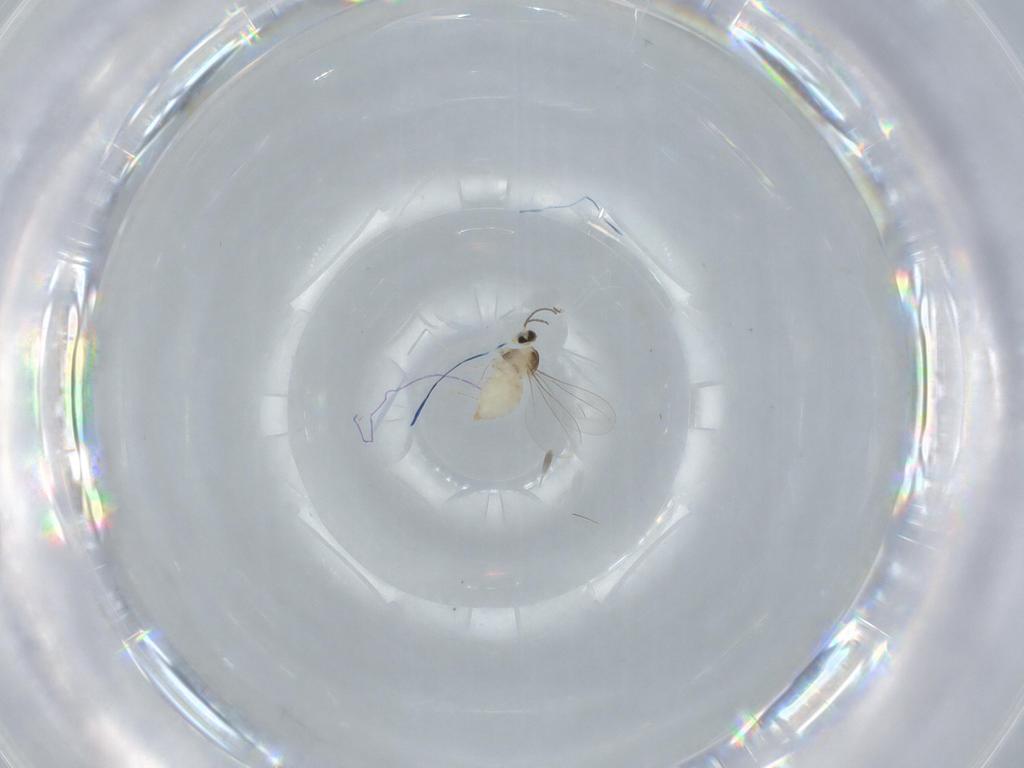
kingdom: Animalia
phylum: Arthropoda
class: Insecta
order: Diptera
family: Cecidomyiidae
